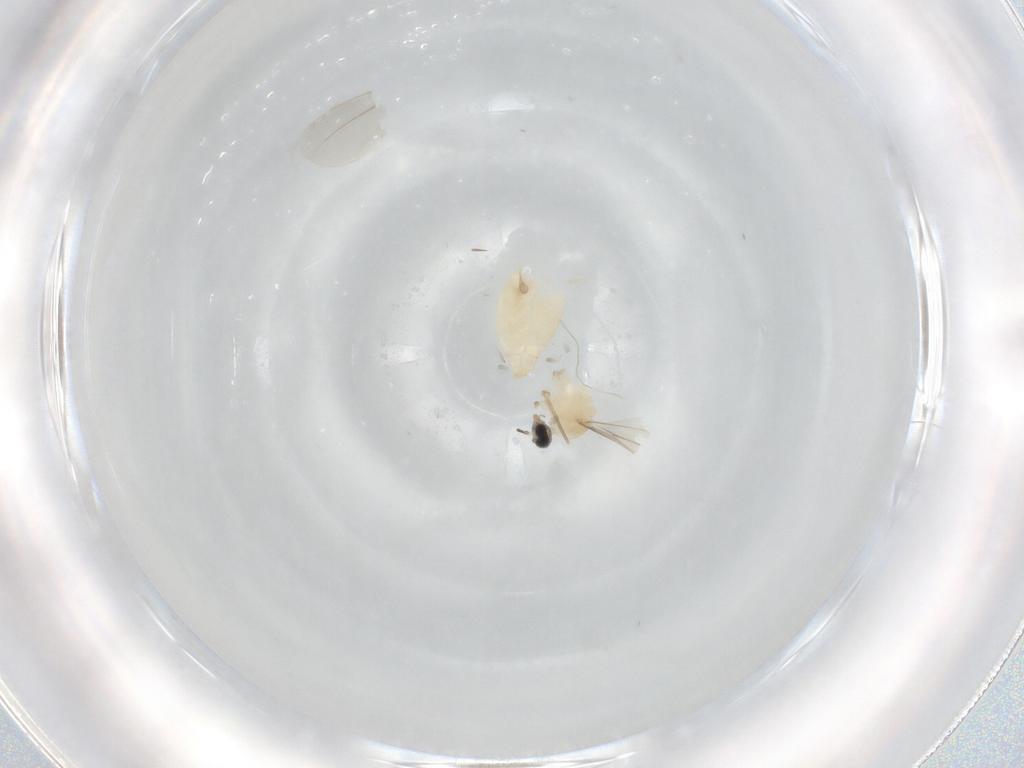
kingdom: Animalia
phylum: Arthropoda
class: Insecta
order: Diptera
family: Cecidomyiidae
